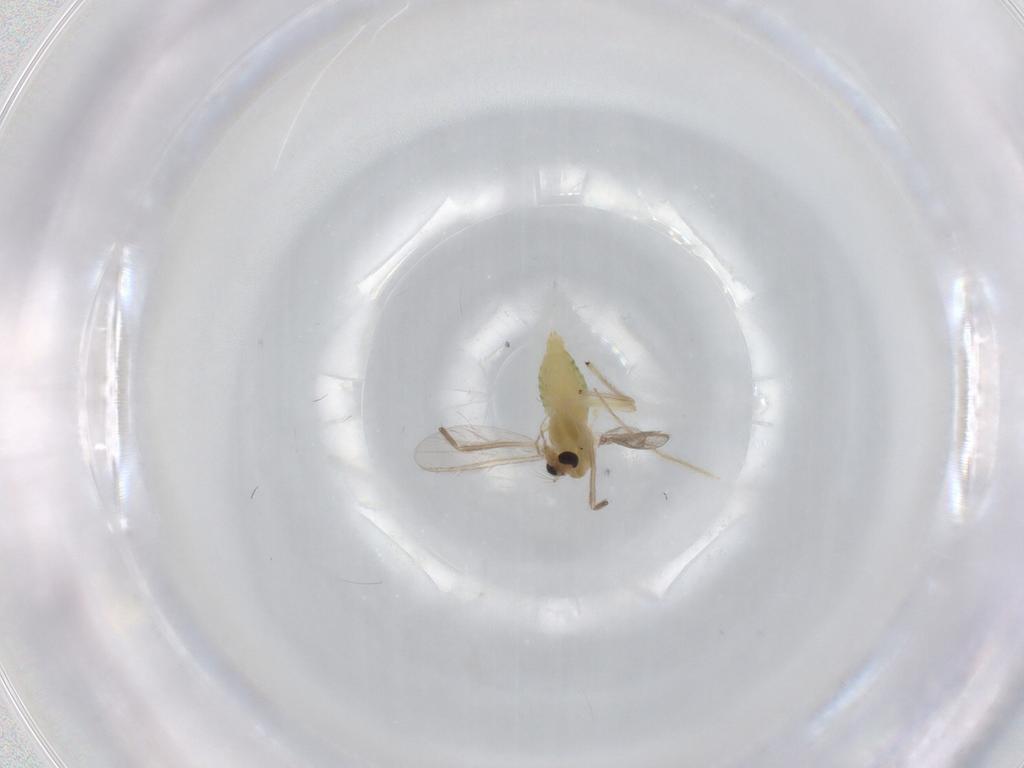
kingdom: Animalia
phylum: Arthropoda
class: Insecta
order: Diptera
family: Chironomidae
